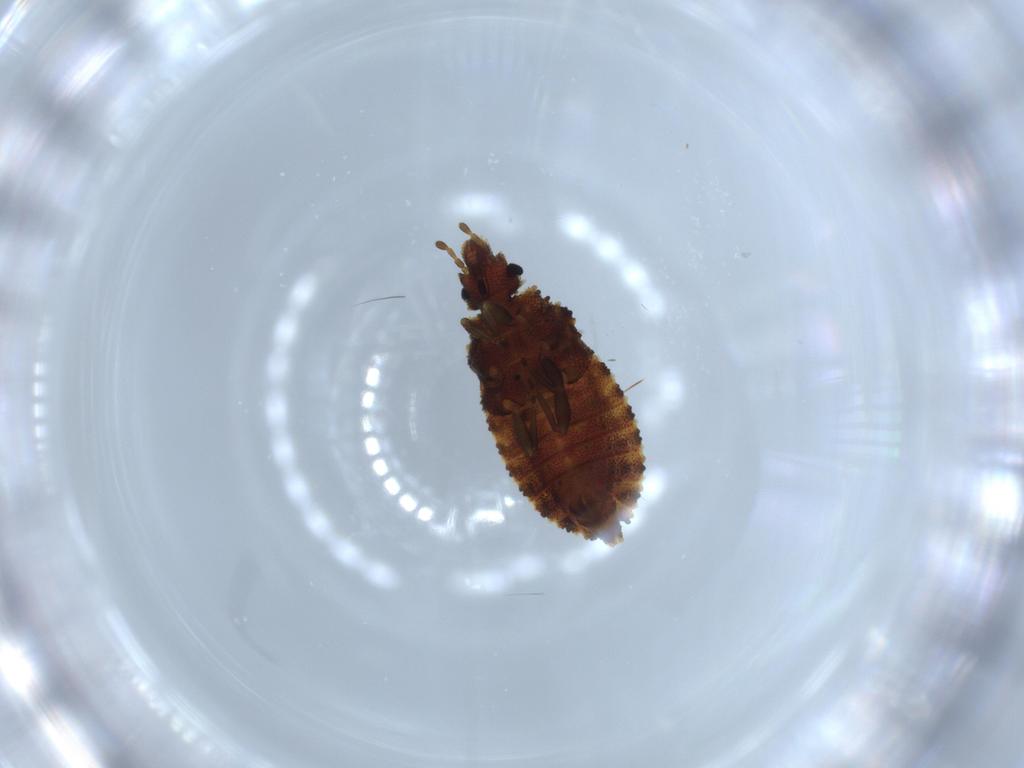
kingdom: Animalia
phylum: Arthropoda
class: Insecta
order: Hemiptera
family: Aradidae
